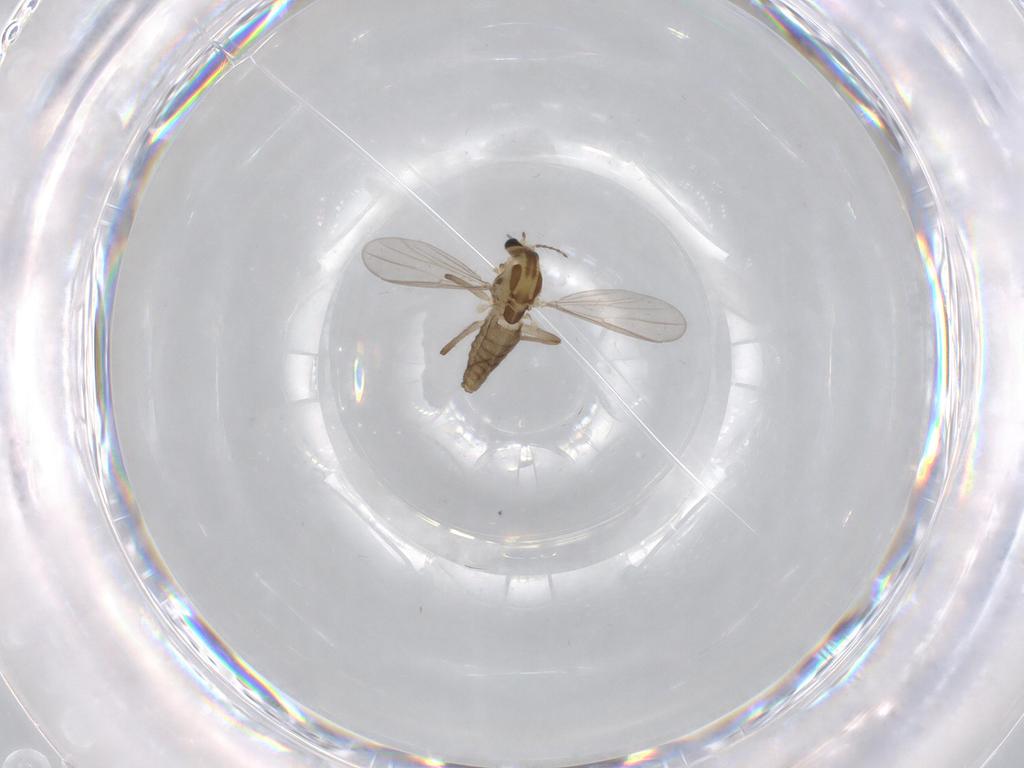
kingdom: Animalia
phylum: Arthropoda
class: Insecta
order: Diptera
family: Chironomidae
